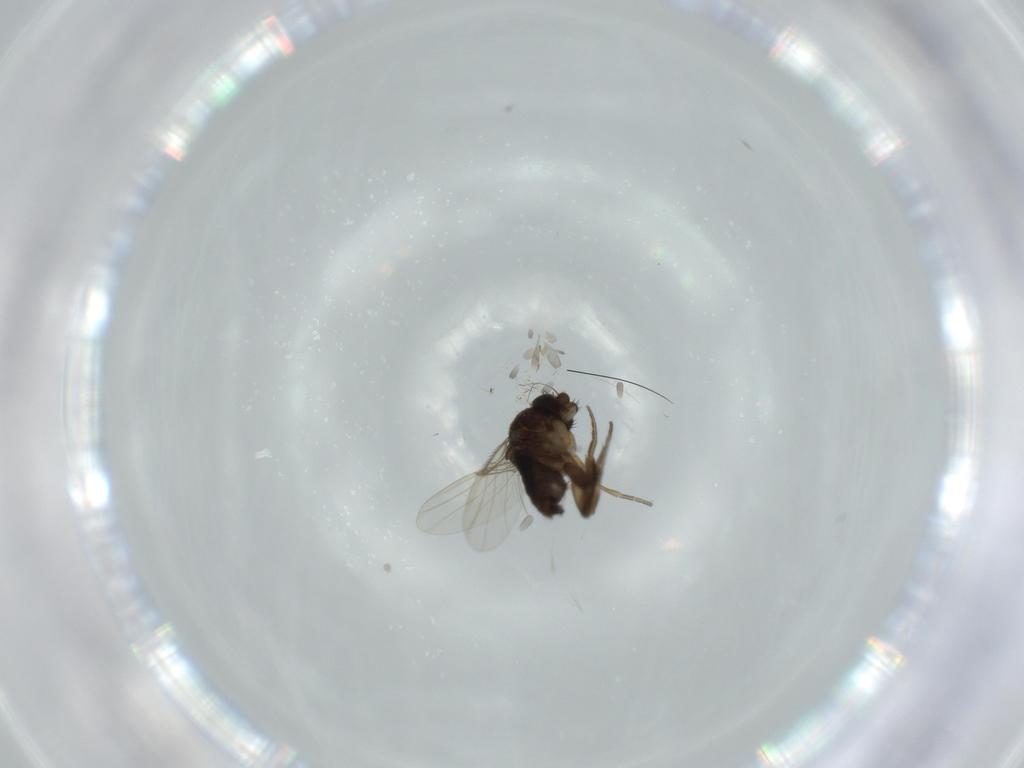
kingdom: Animalia
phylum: Arthropoda
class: Insecta
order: Diptera
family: Phoridae
